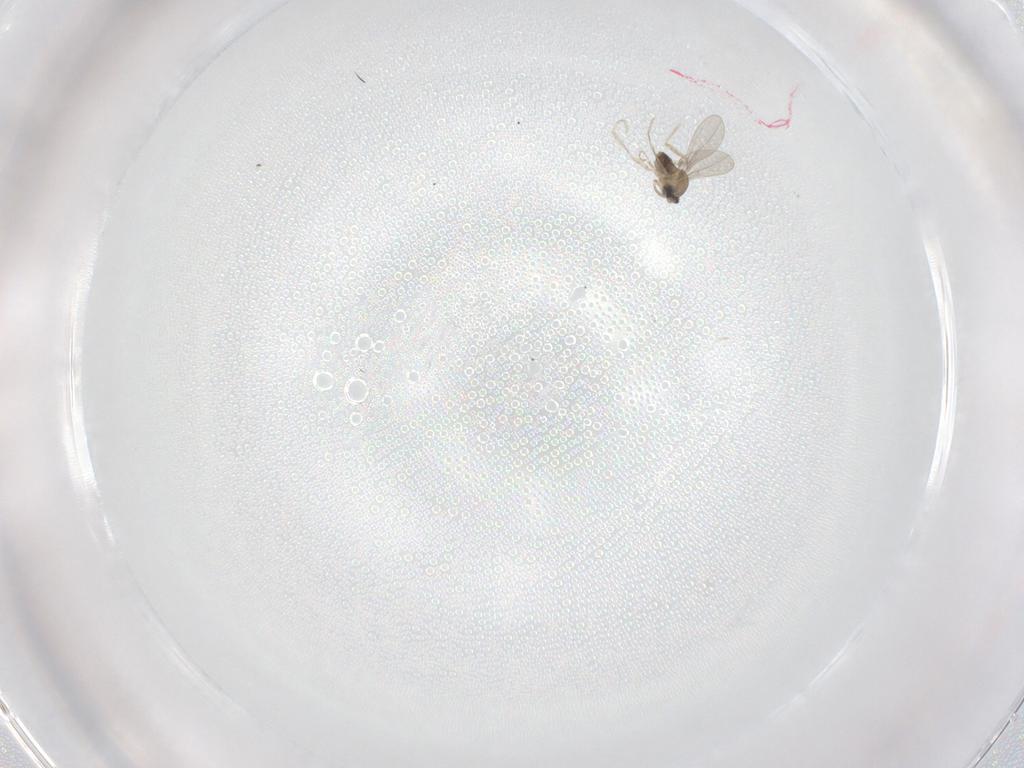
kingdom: Animalia
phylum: Arthropoda
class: Insecta
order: Diptera
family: Cecidomyiidae
